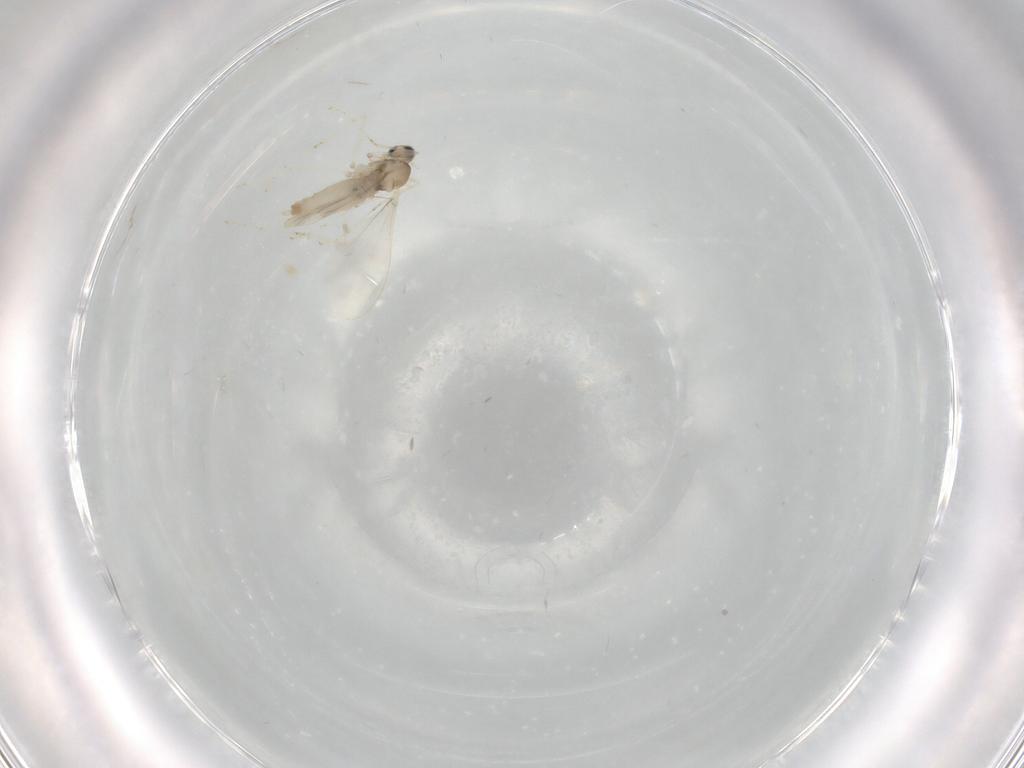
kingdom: Animalia
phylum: Arthropoda
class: Insecta
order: Diptera
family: Cecidomyiidae
